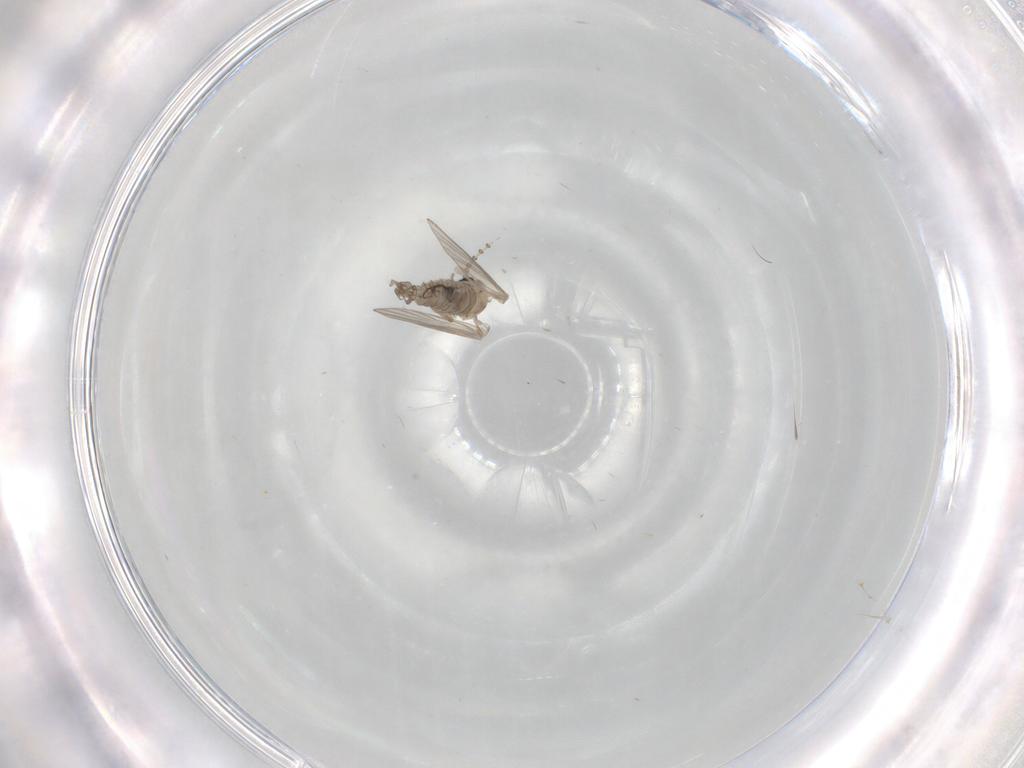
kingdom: Animalia
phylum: Arthropoda
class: Insecta
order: Diptera
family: Psychodidae
